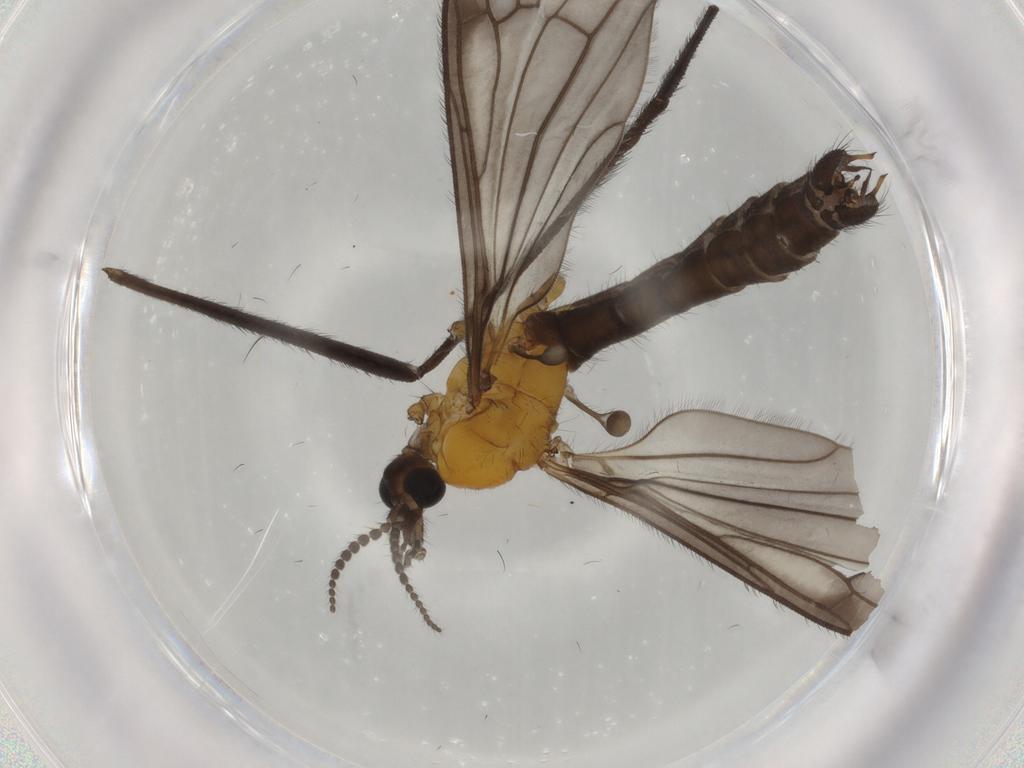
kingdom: Animalia
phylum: Arthropoda
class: Insecta
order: Diptera
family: Limoniidae
